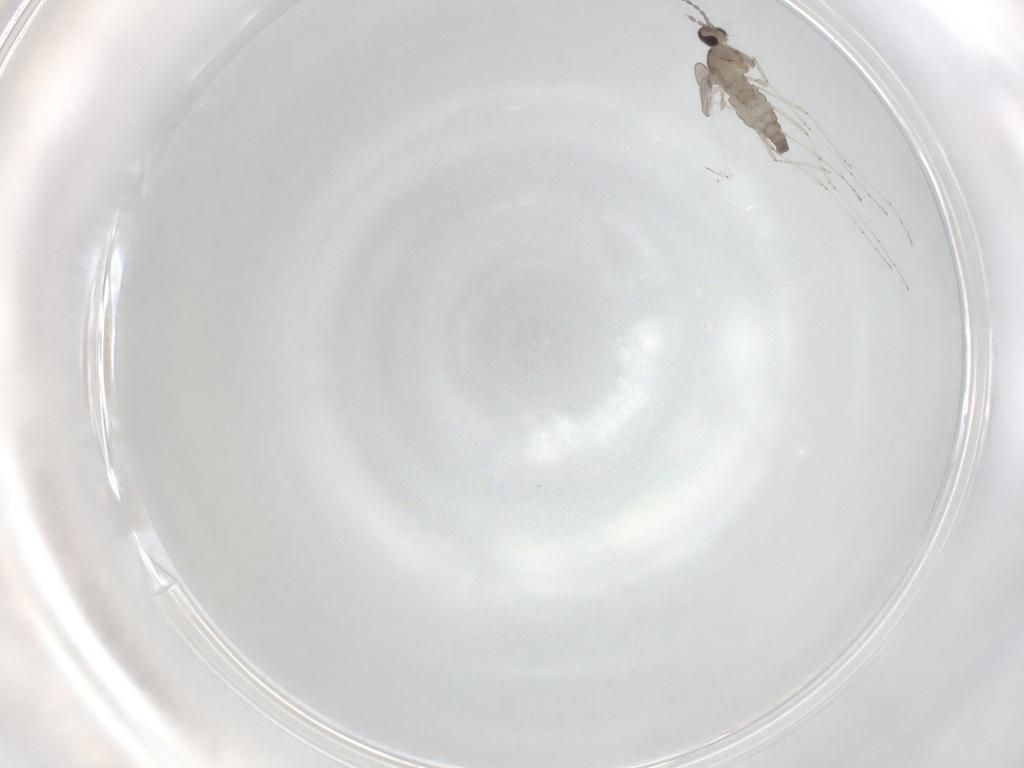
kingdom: Animalia
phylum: Arthropoda
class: Insecta
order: Diptera
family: Cecidomyiidae
